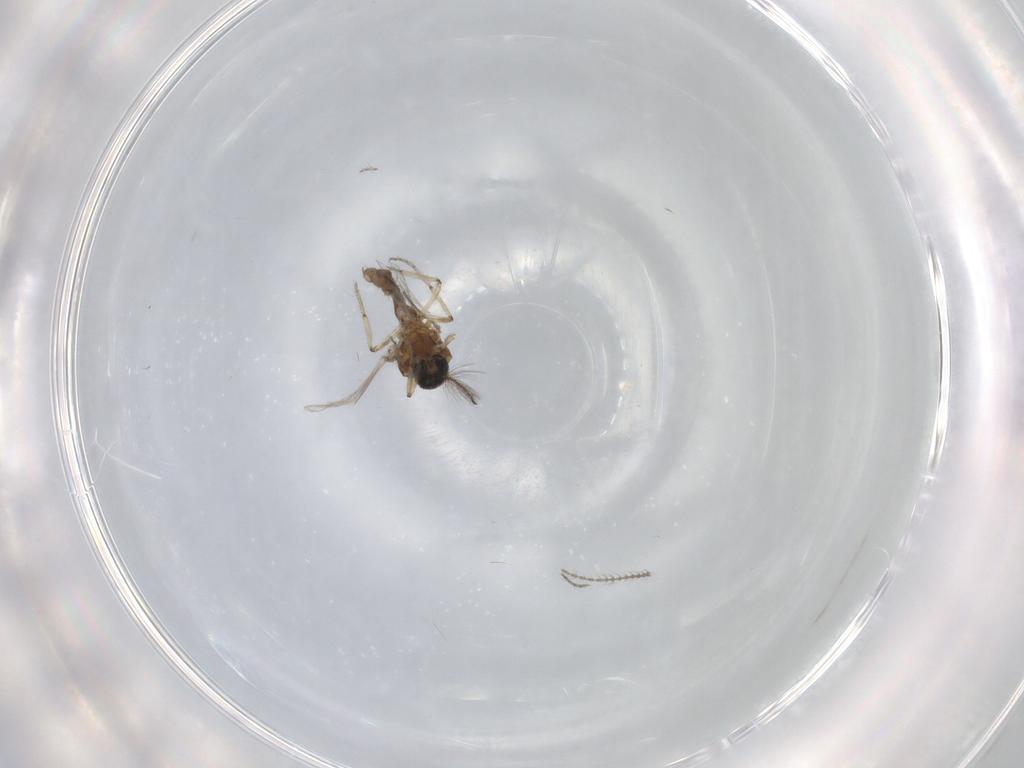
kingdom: Animalia
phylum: Arthropoda
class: Insecta
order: Diptera
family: Ceratopogonidae
